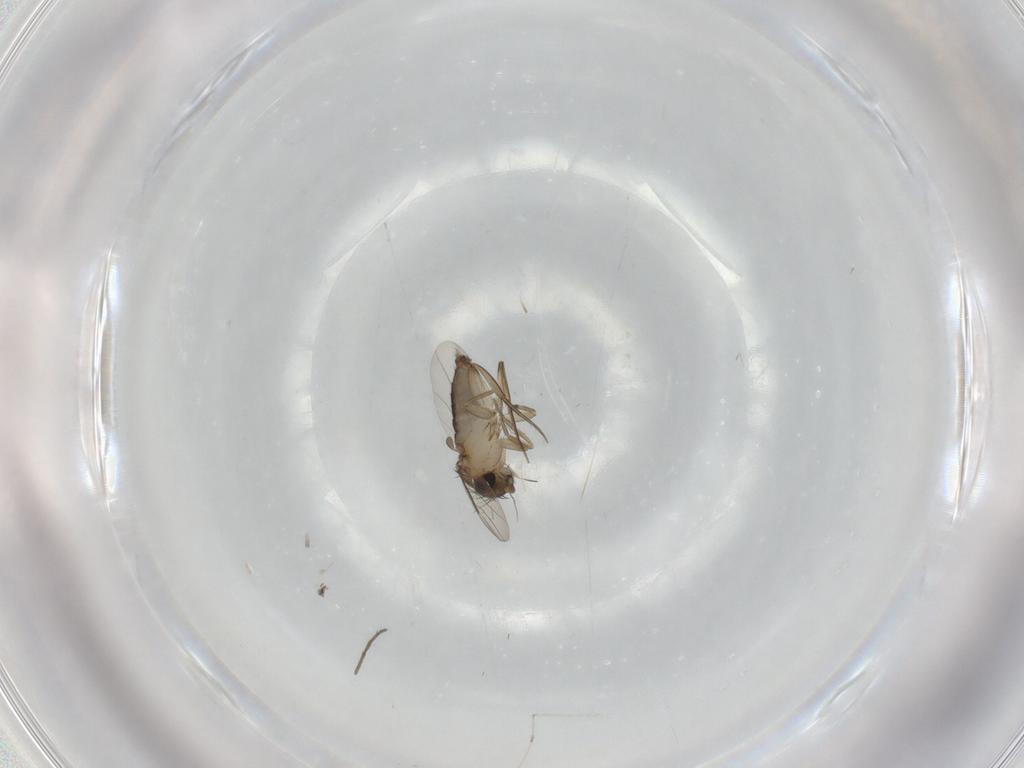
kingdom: Animalia
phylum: Arthropoda
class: Insecta
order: Diptera
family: Phoridae
